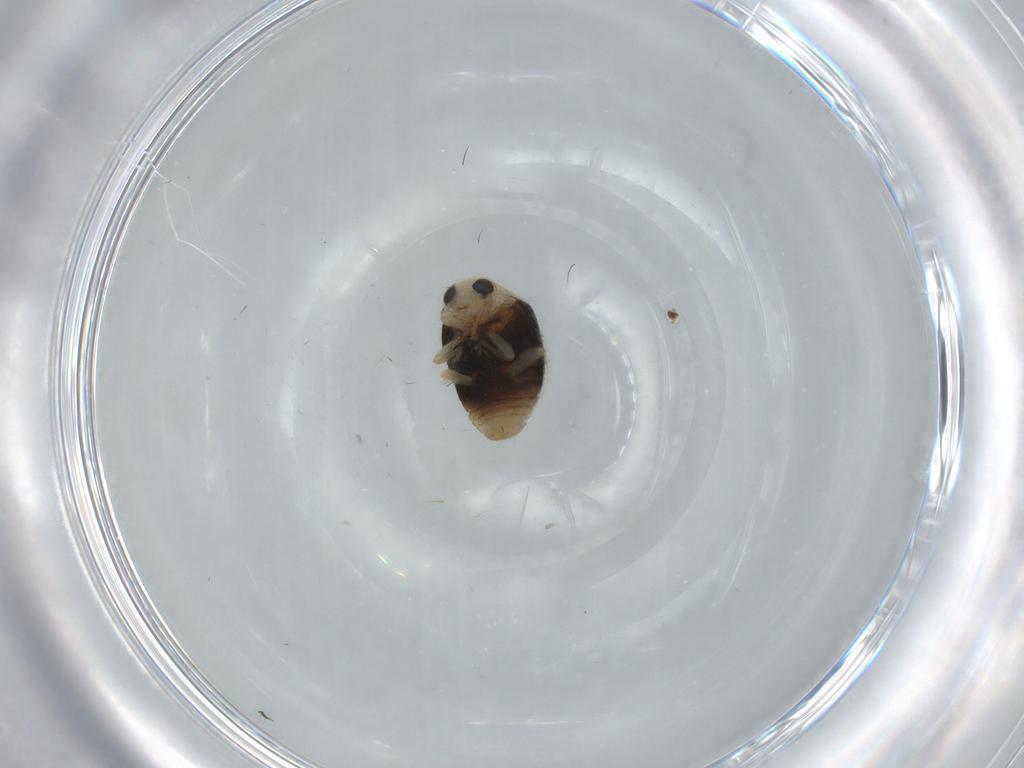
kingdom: Animalia
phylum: Arthropoda
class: Insecta
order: Coleoptera
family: Coccinellidae
